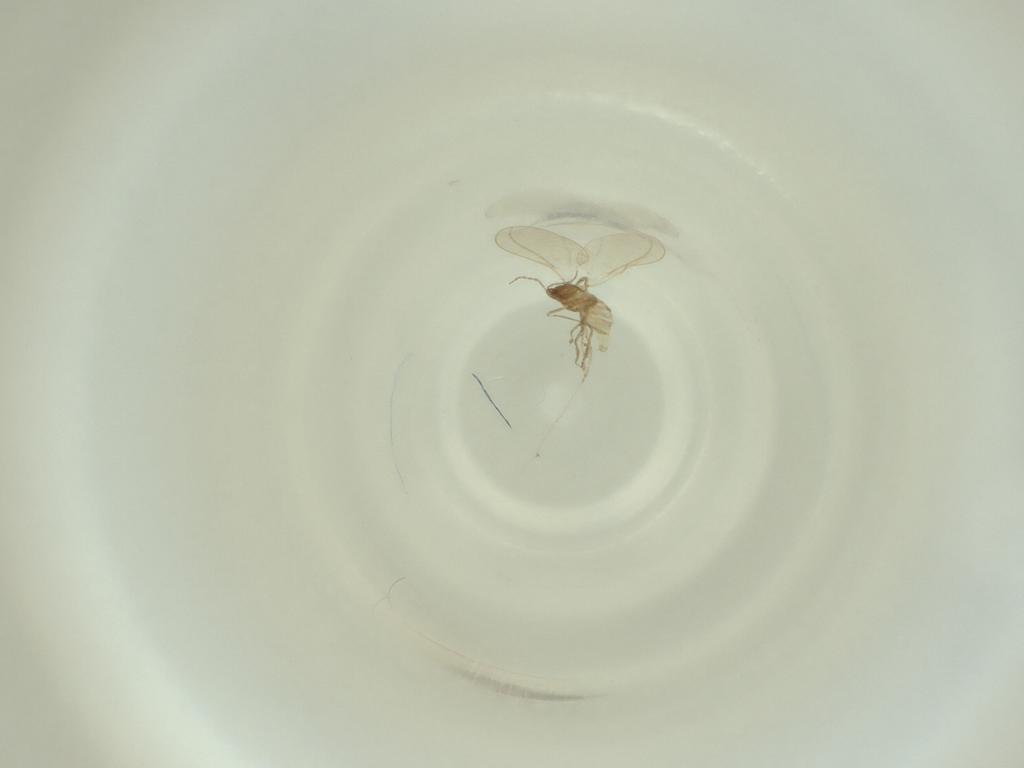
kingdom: Animalia
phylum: Arthropoda
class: Insecta
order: Diptera
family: Cecidomyiidae
